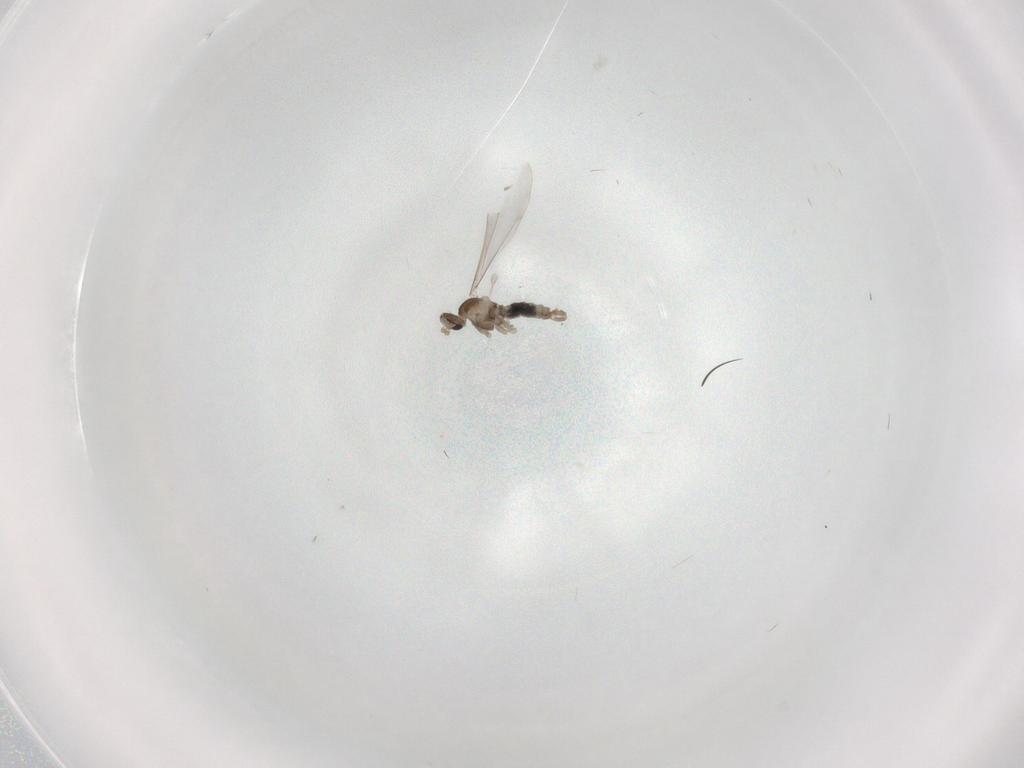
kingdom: Animalia
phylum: Arthropoda
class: Insecta
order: Diptera
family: Cecidomyiidae
